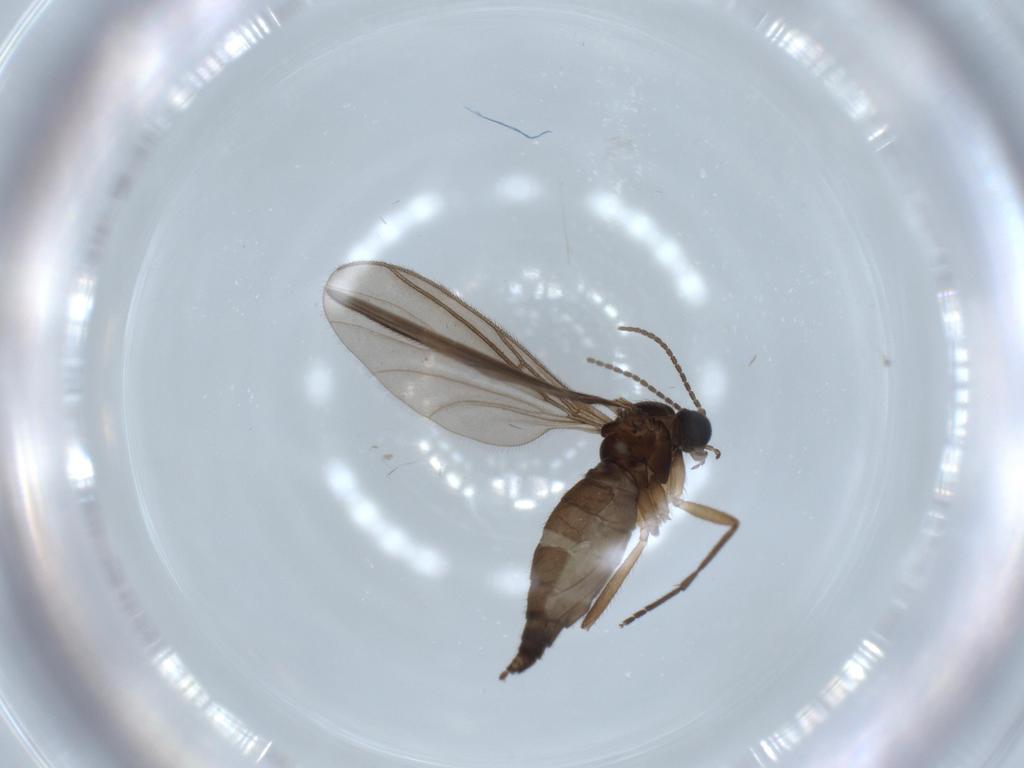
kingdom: Animalia
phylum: Arthropoda
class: Insecta
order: Diptera
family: Sciaridae
